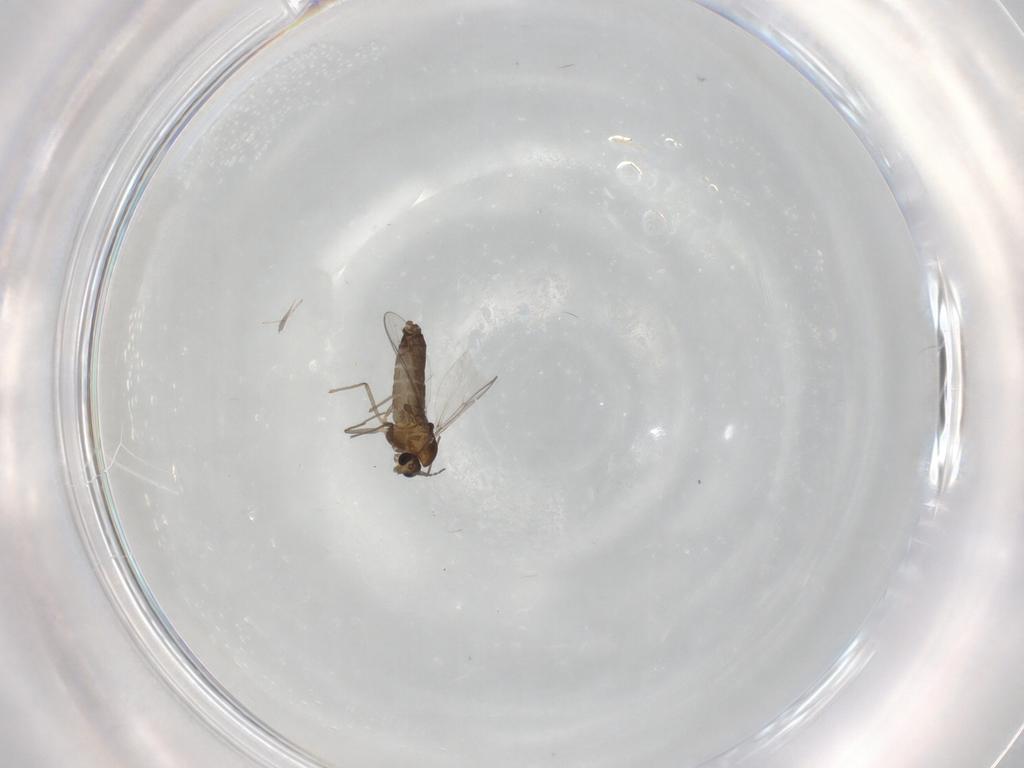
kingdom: Animalia
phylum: Arthropoda
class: Insecta
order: Diptera
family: Chironomidae
